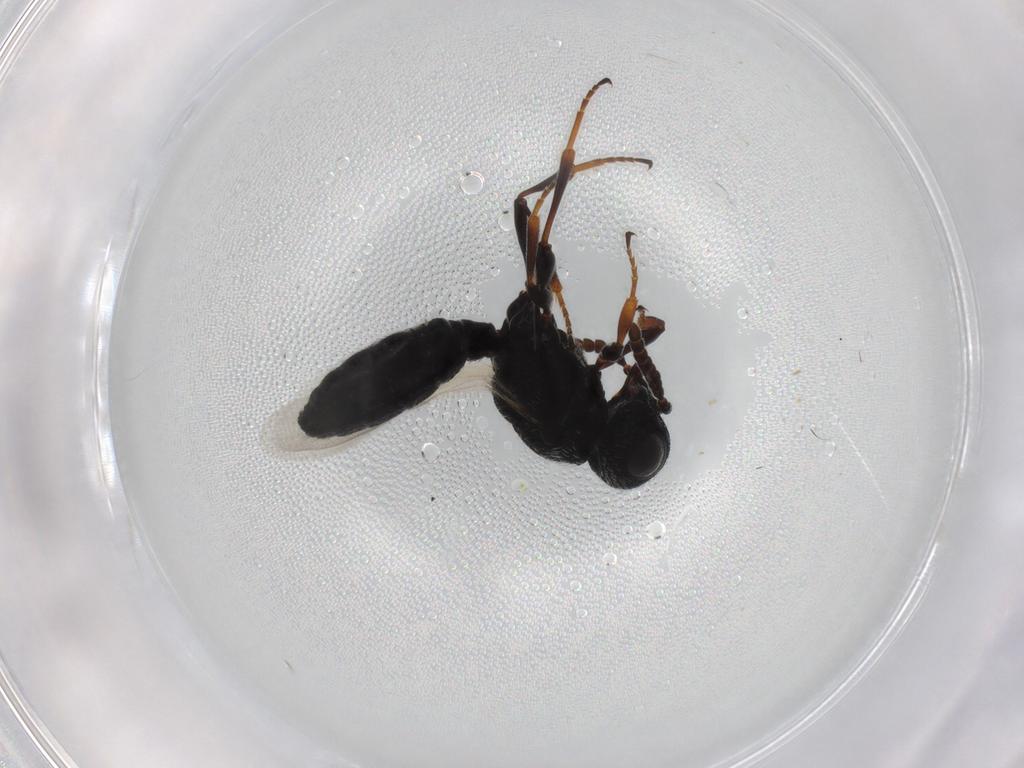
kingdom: Animalia
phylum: Arthropoda
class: Insecta
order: Hymenoptera
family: Scelionidae
